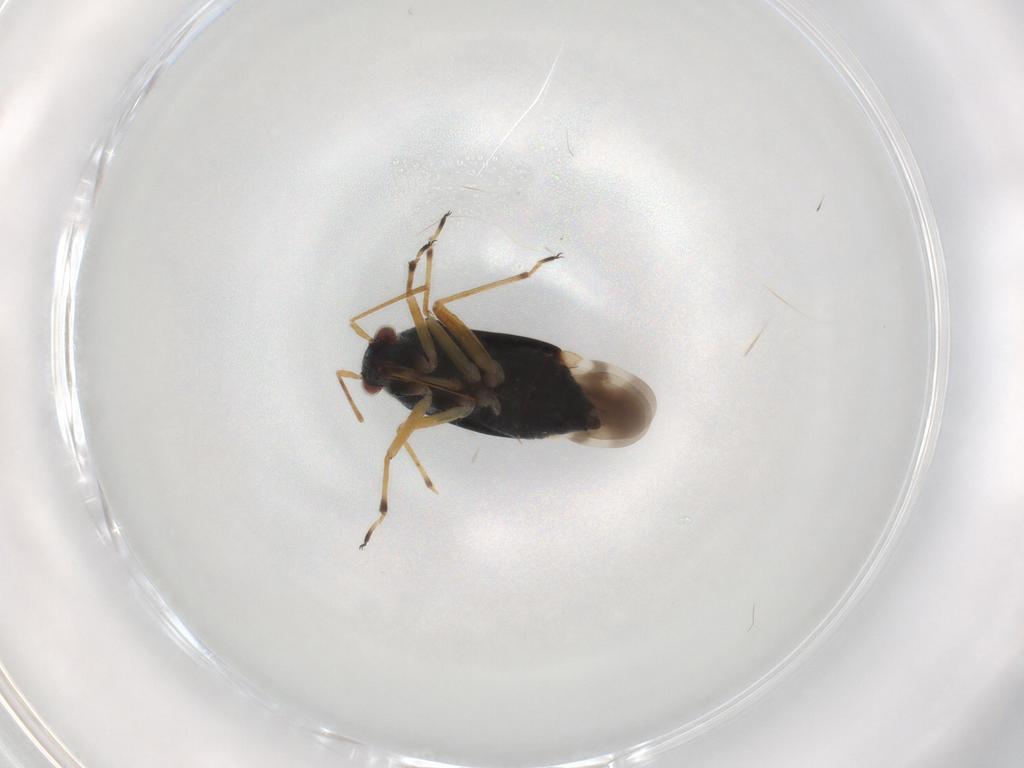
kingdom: Animalia
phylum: Arthropoda
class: Insecta
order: Hemiptera
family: Miridae
